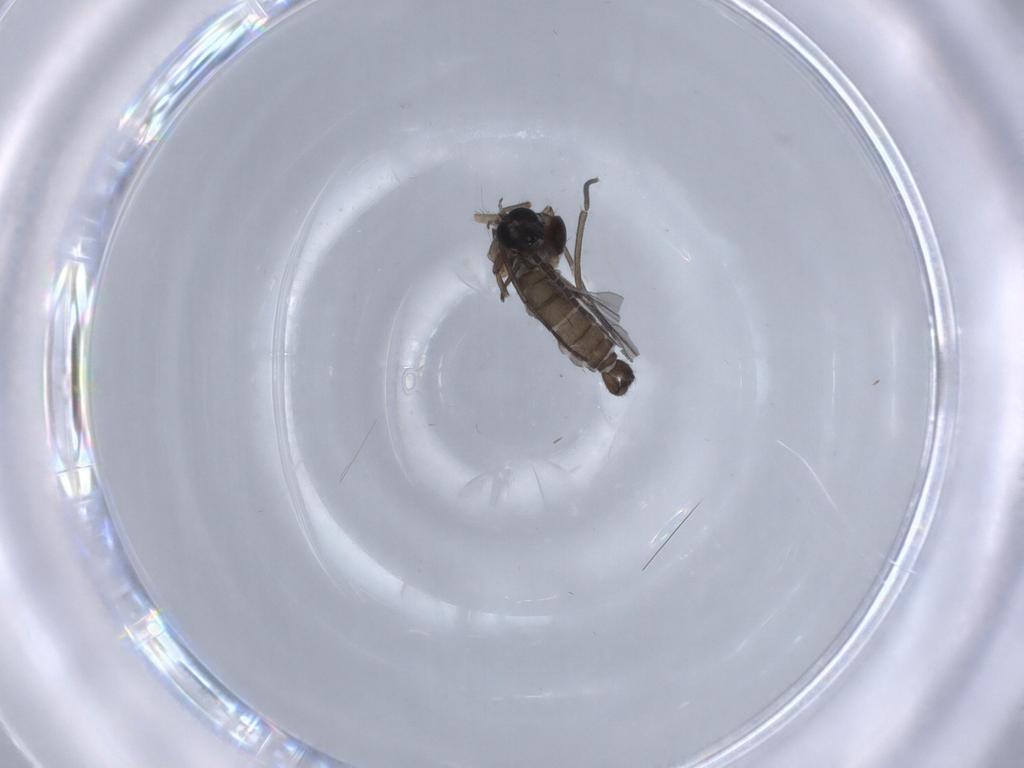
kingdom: Animalia
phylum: Arthropoda
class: Insecta
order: Diptera
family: Sciaridae
